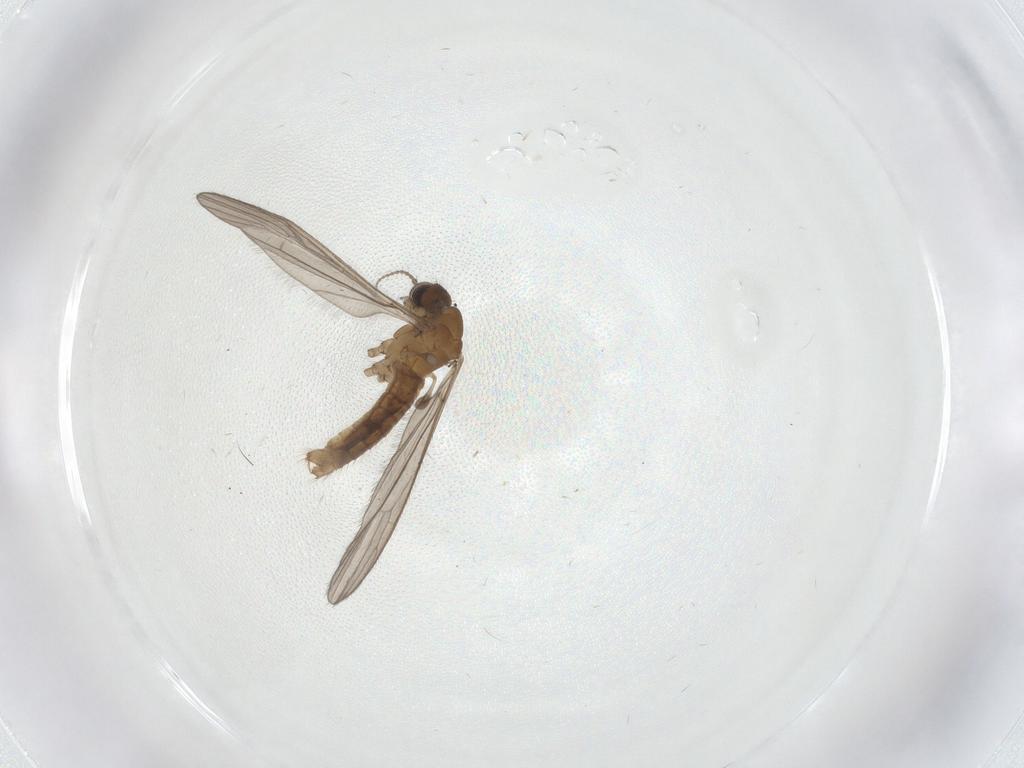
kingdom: Animalia
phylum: Arthropoda
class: Insecta
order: Diptera
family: Limoniidae
